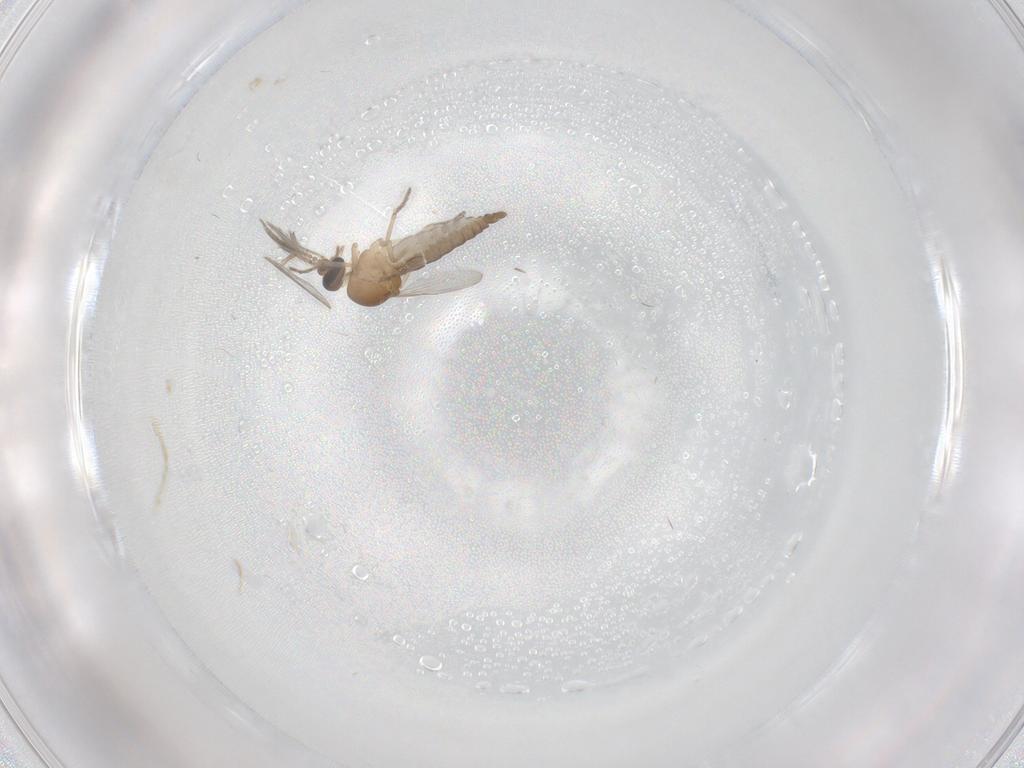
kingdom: Animalia
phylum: Arthropoda
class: Insecta
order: Diptera
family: Ceratopogonidae
